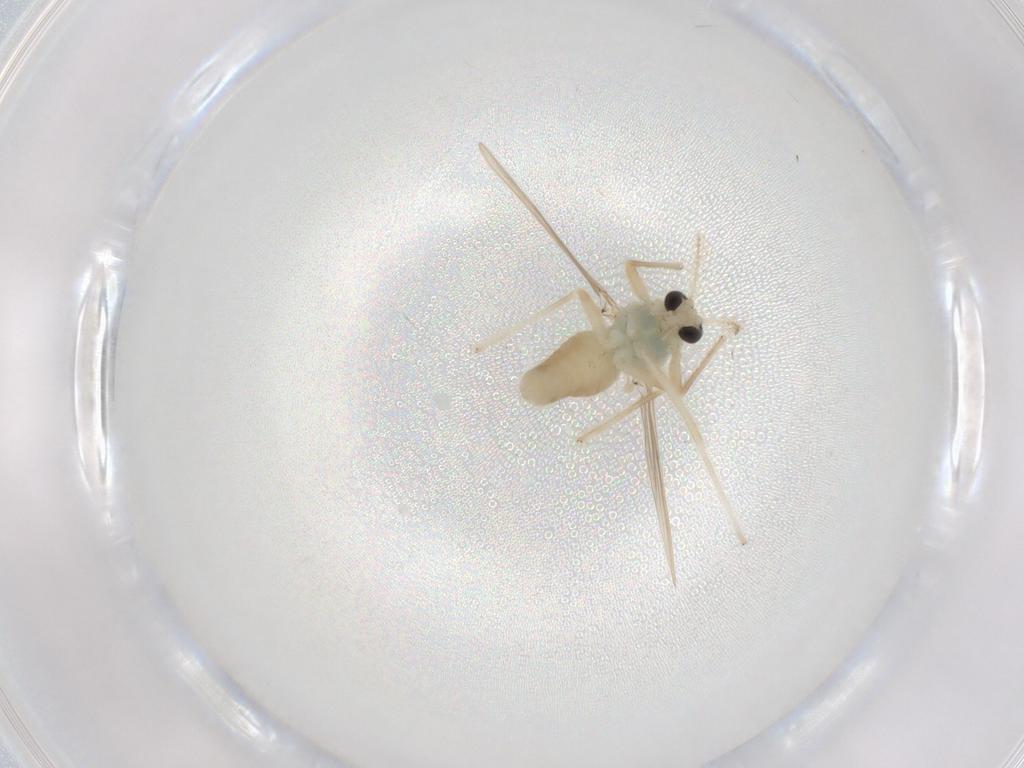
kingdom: Animalia
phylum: Arthropoda
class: Insecta
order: Diptera
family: Chironomidae
